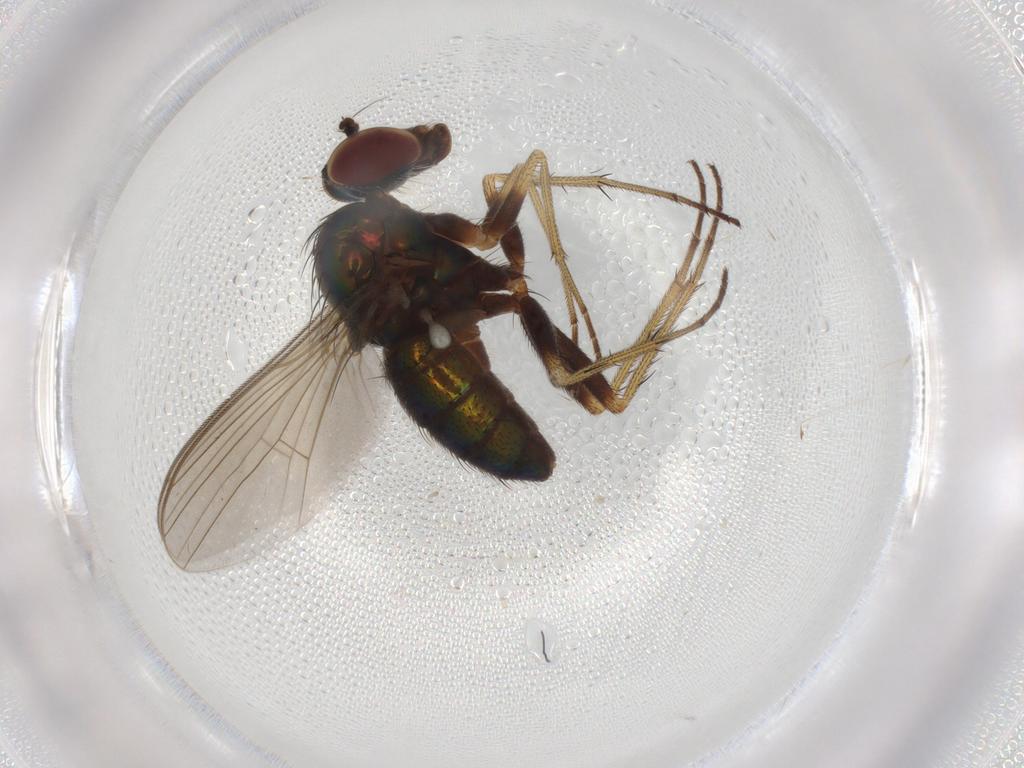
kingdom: Animalia
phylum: Arthropoda
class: Insecta
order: Diptera
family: Dolichopodidae
